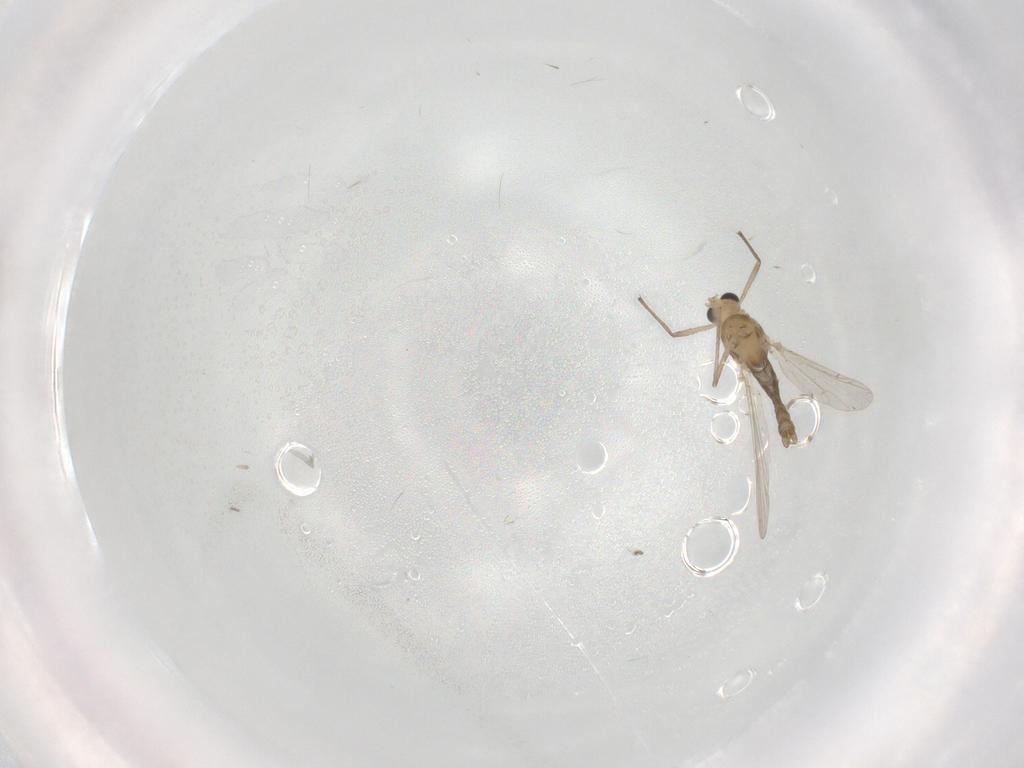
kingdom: Animalia
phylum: Arthropoda
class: Insecta
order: Diptera
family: Chironomidae
